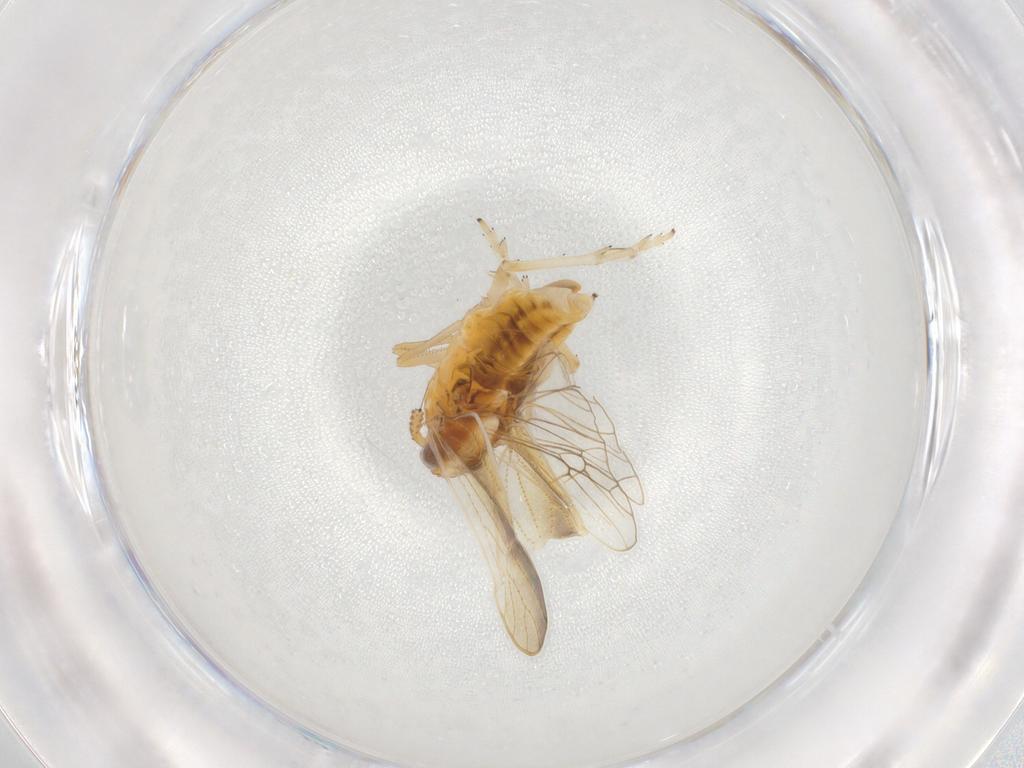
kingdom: Animalia
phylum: Arthropoda
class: Insecta
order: Hemiptera
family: Delphacidae
